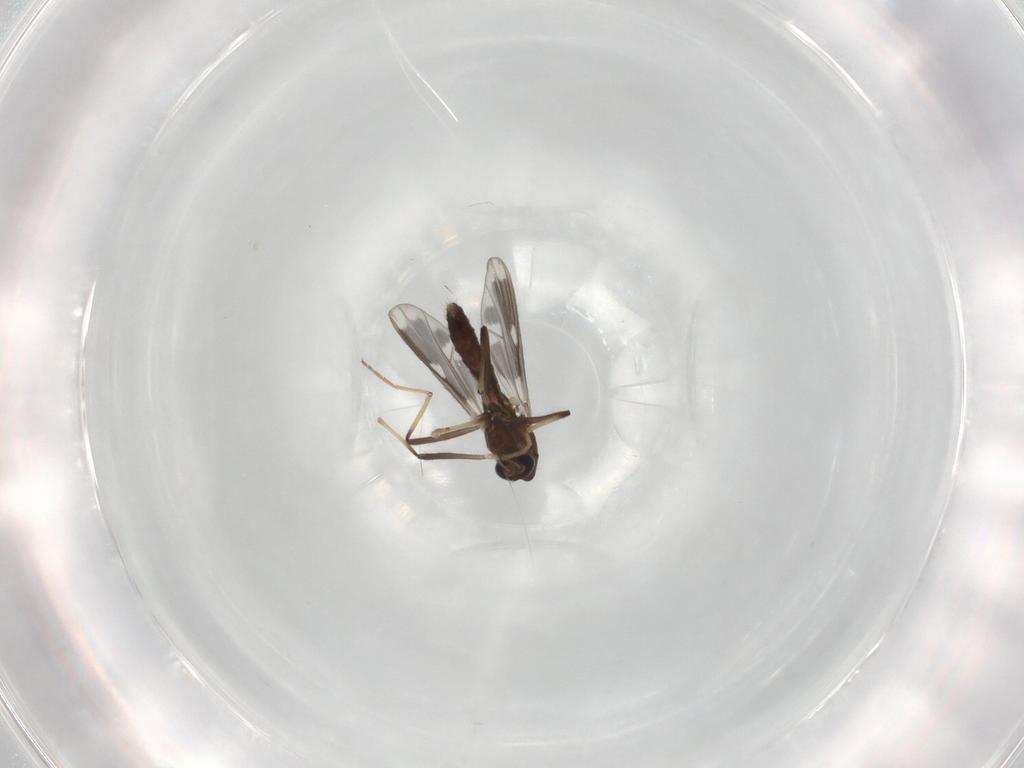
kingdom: Animalia
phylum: Arthropoda
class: Insecta
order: Diptera
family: Chironomidae
